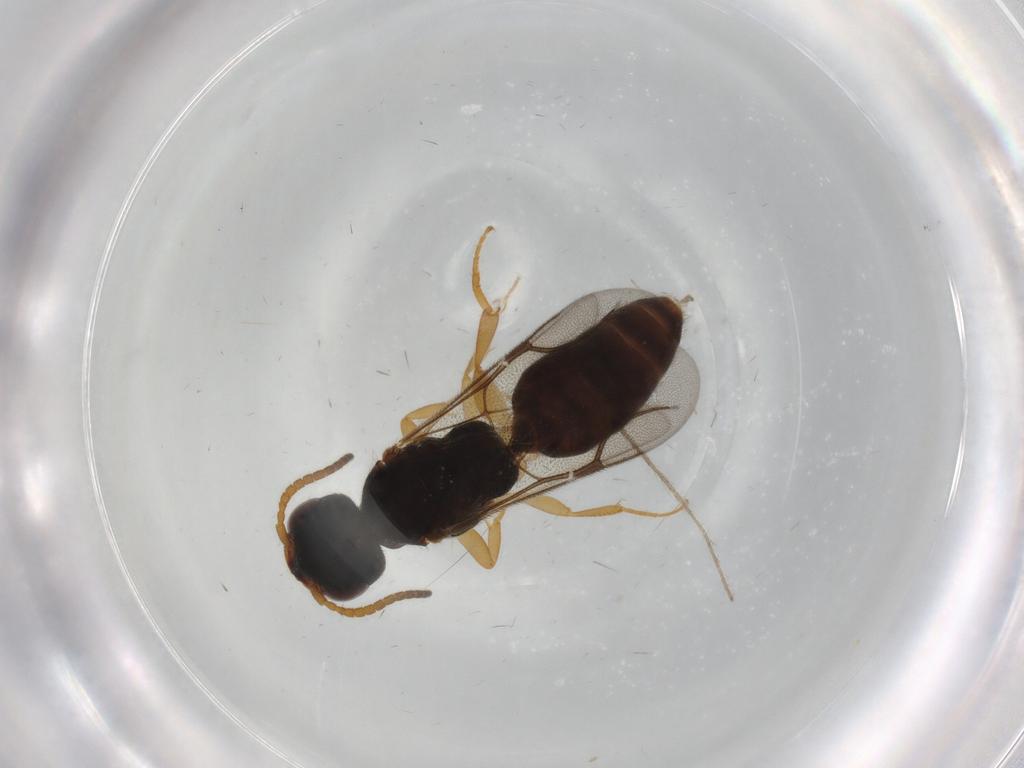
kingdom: Animalia
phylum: Arthropoda
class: Insecta
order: Hymenoptera
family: Bethylidae
